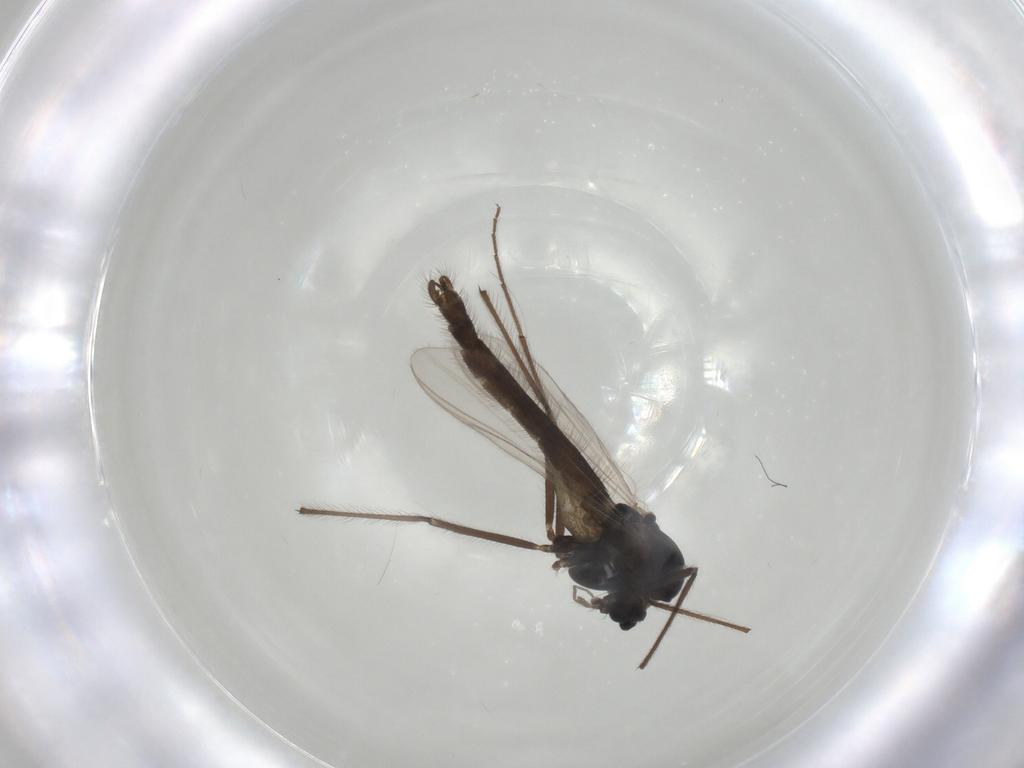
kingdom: Animalia
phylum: Arthropoda
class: Insecta
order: Diptera
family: Chironomidae
